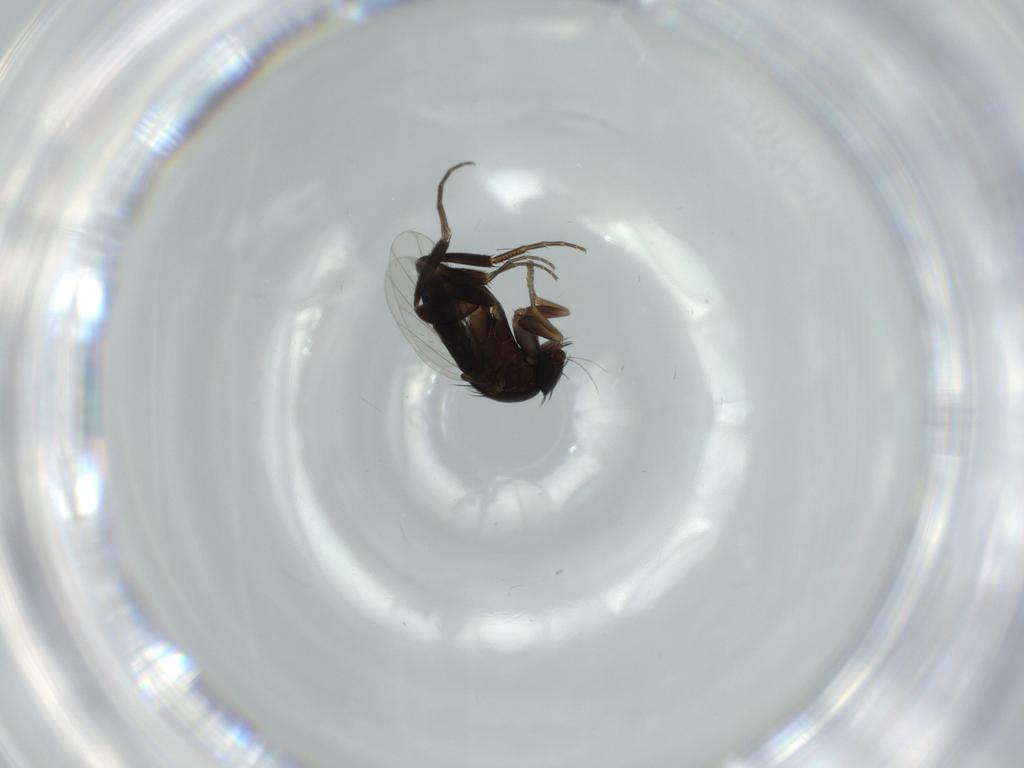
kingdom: Animalia
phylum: Arthropoda
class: Insecta
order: Diptera
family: Phoridae
